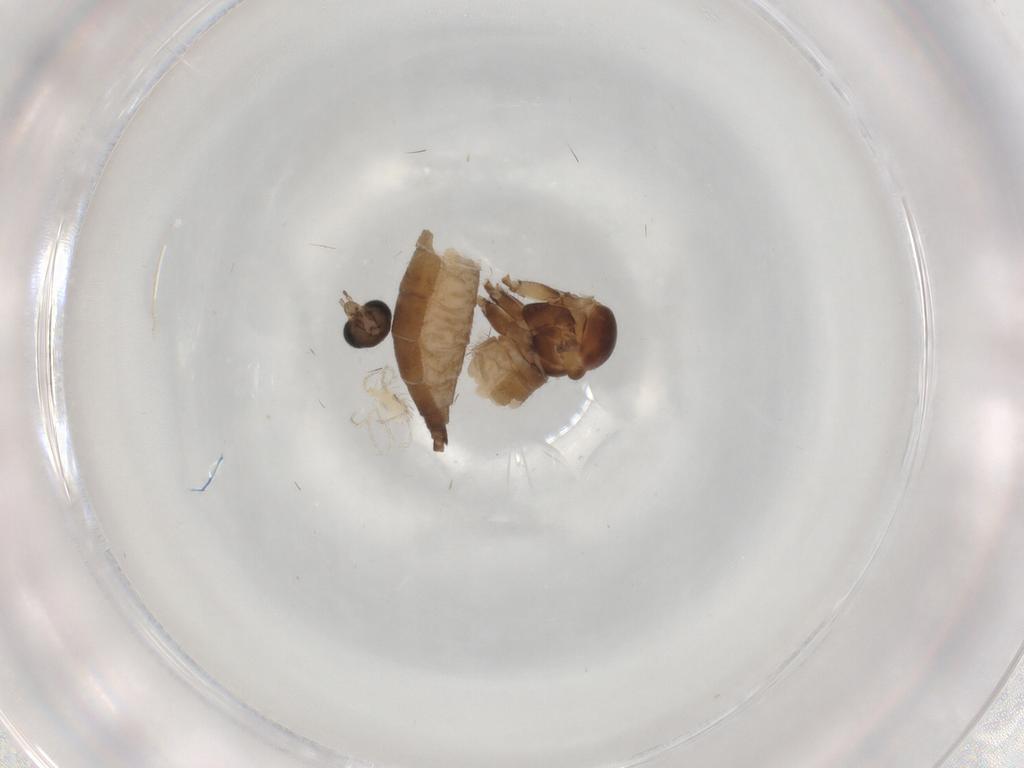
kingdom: Animalia
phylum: Arthropoda
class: Insecta
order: Diptera
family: Sciaridae
